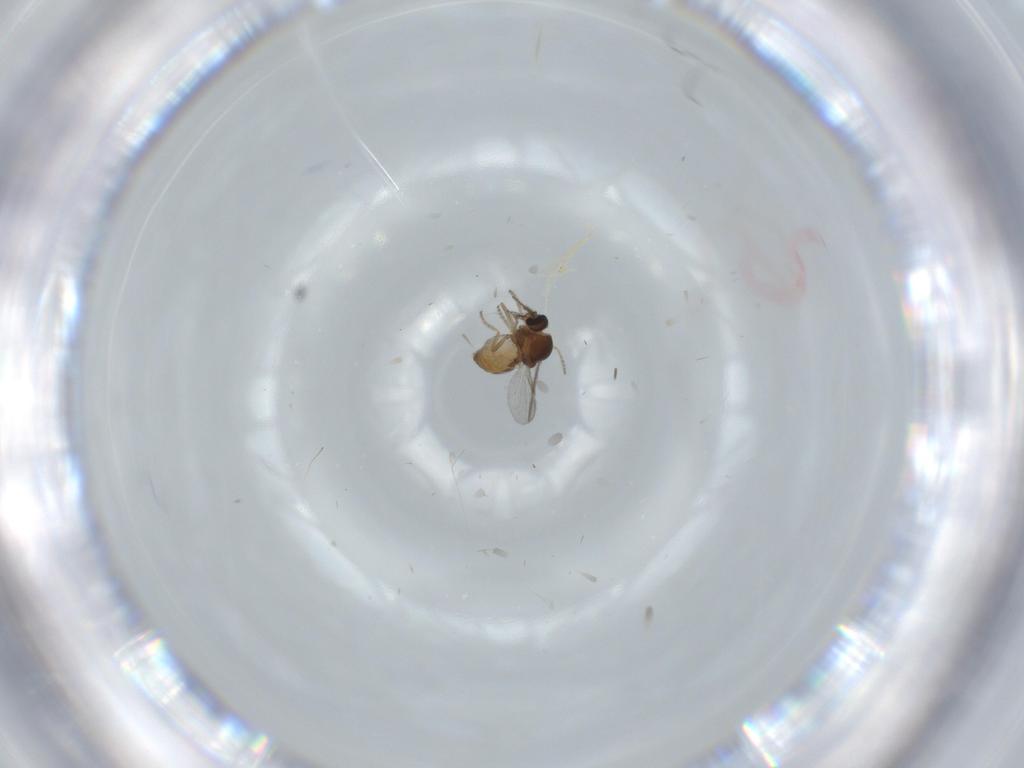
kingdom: Animalia
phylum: Arthropoda
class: Insecta
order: Diptera
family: Ceratopogonidae
